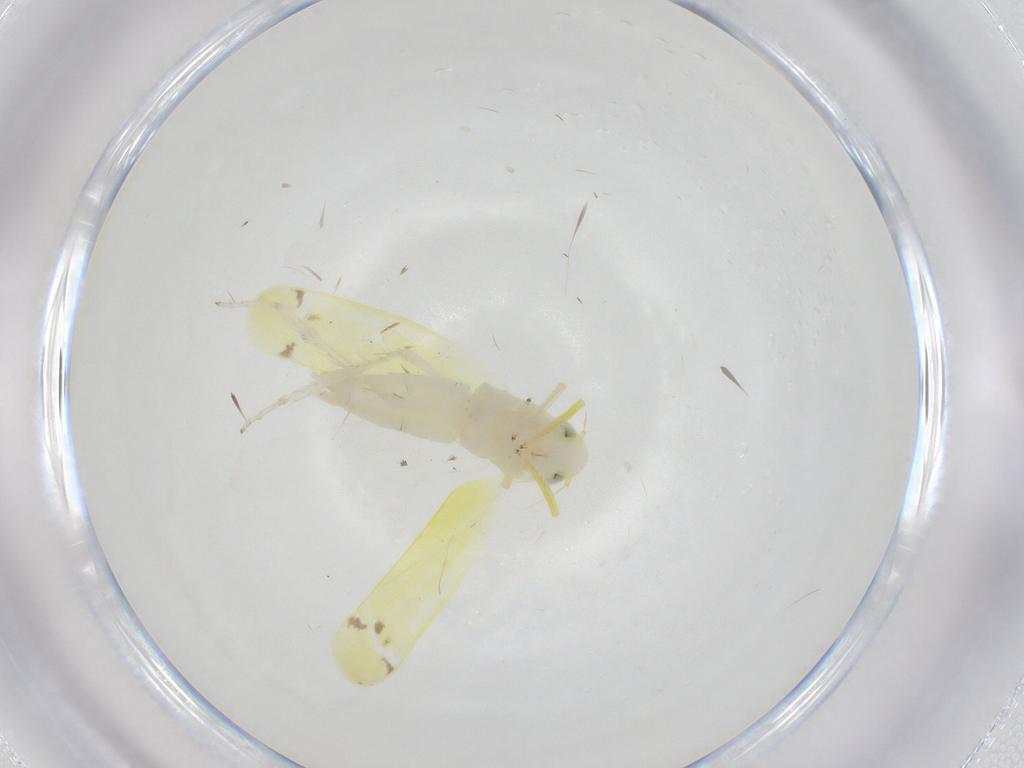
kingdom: Animalia
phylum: Arthropoda
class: Insecta
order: Hemiptera
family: Cicadellidae
